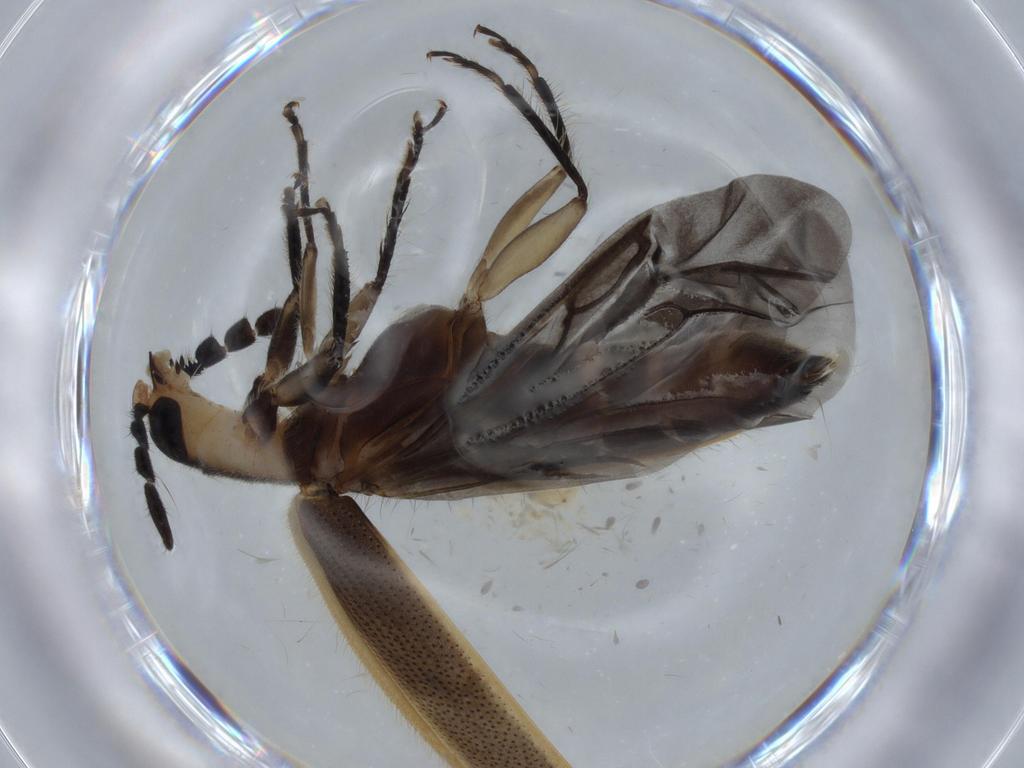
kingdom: Animalia
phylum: Arthropoda
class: Insecta
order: Coleoptera
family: Cleridae
